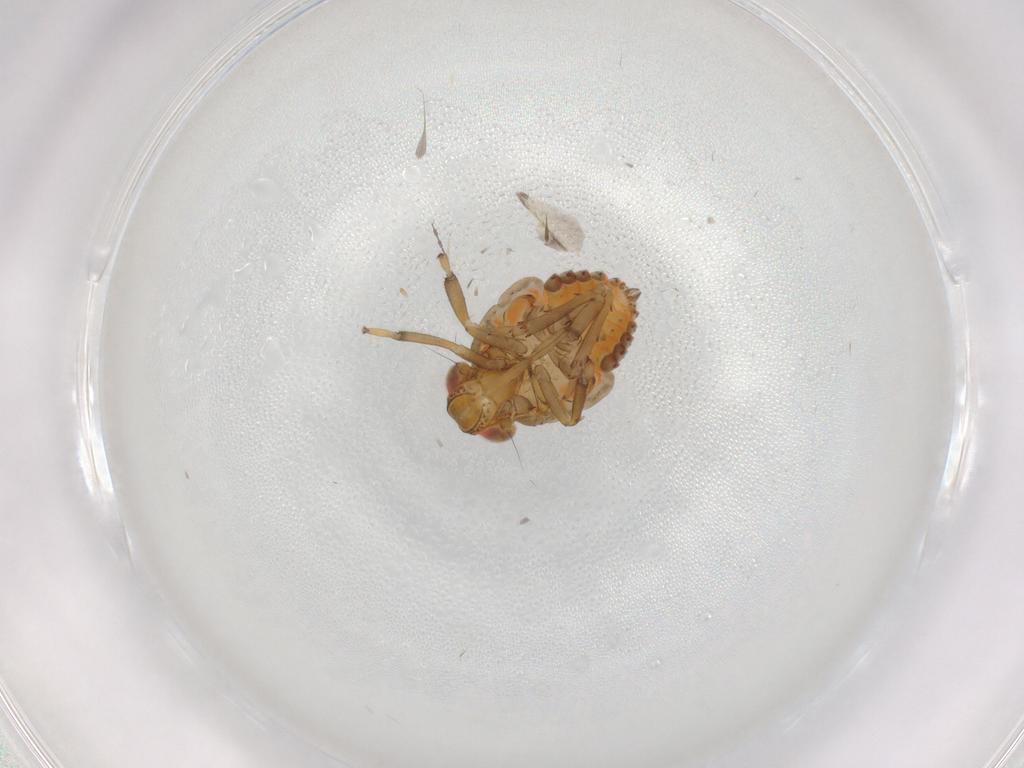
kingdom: Animalia
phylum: Arthropoda
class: Insecta
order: Hemiptera
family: Issidae
